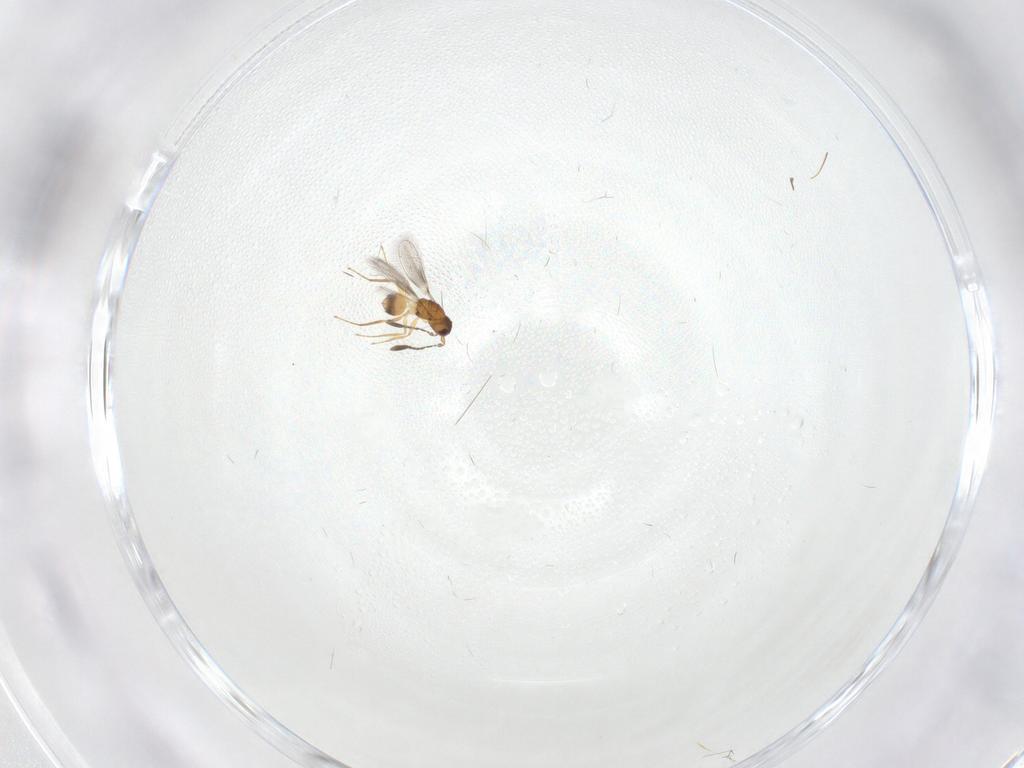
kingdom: Animalia
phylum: Arthropoda
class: Insecta
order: Hymenoptera
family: Mymaridae
